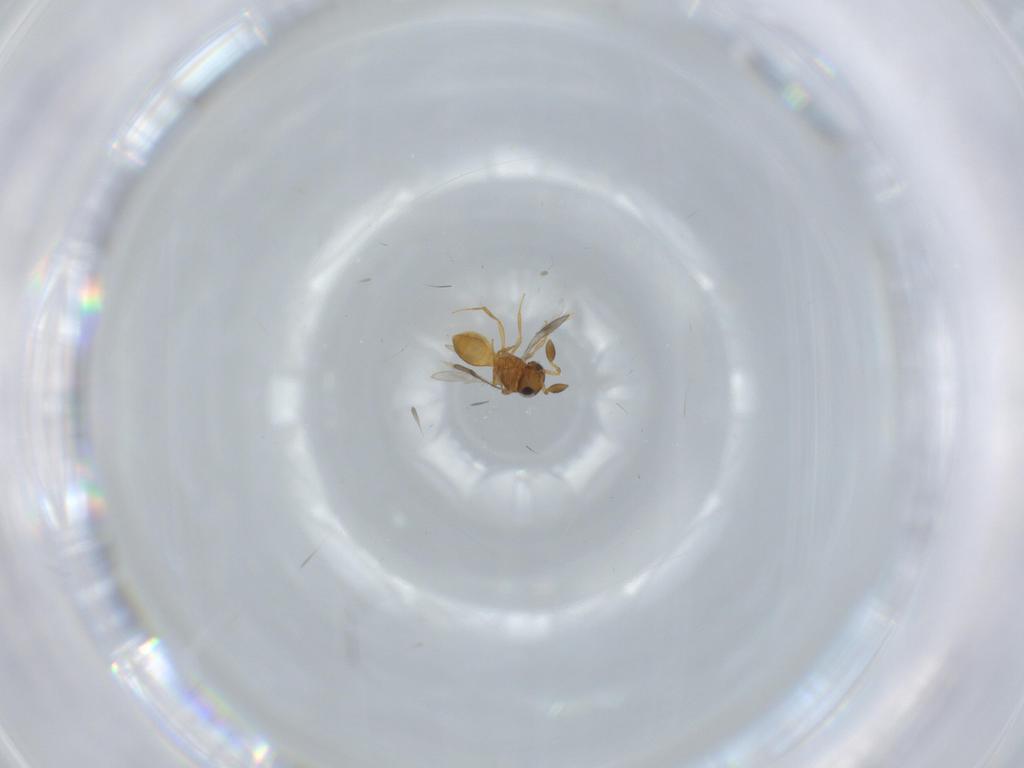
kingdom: Animalia
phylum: Arthropoda
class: Insecta
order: Hymenoptera
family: Scelionidae
